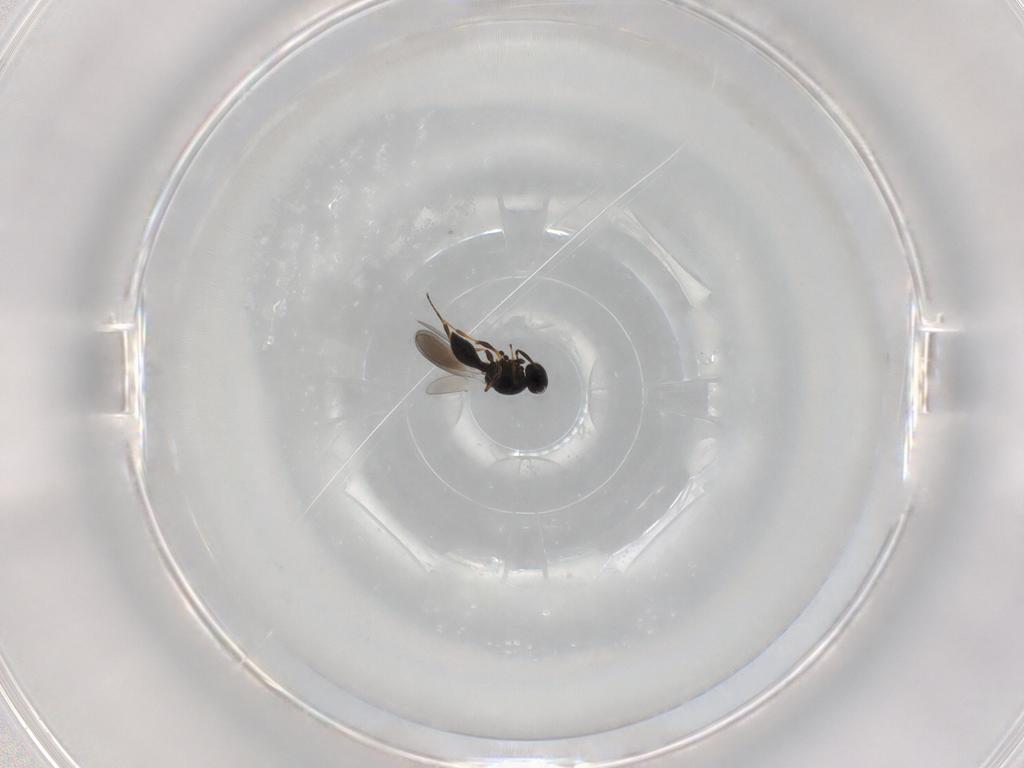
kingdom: Animalia
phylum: Arthropoda
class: Insecta
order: Hymenoptera
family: Platygastridae
